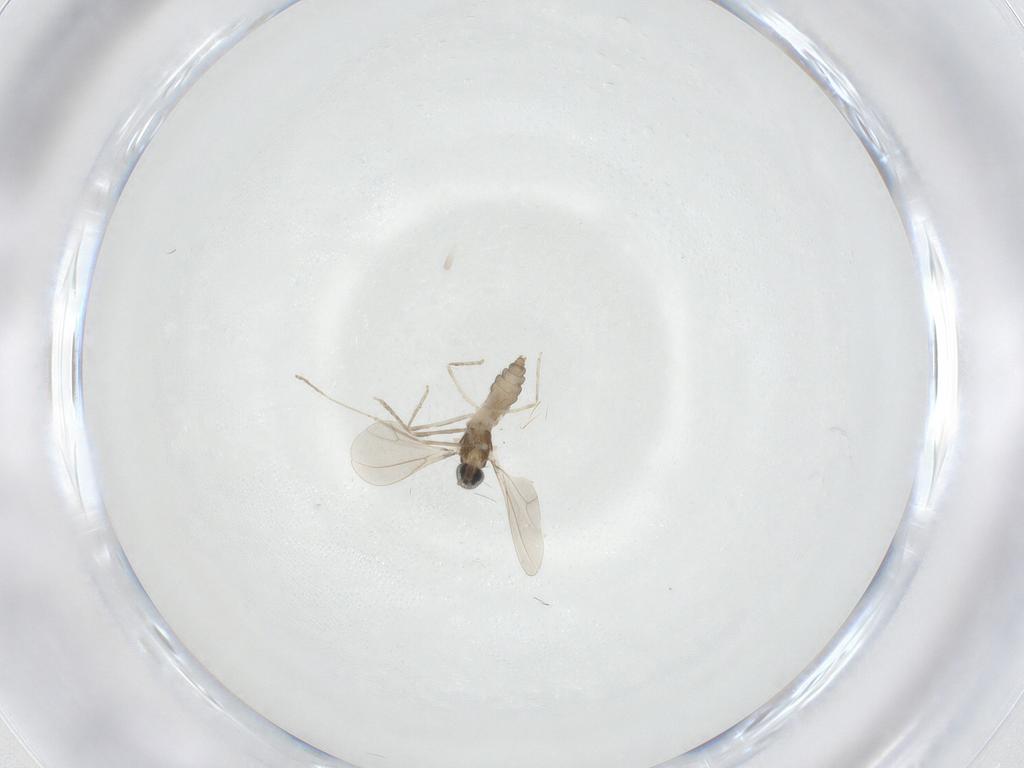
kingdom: Animalia
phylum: Arthropoda
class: Insecta
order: Diptera
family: Cecidomyiidae
